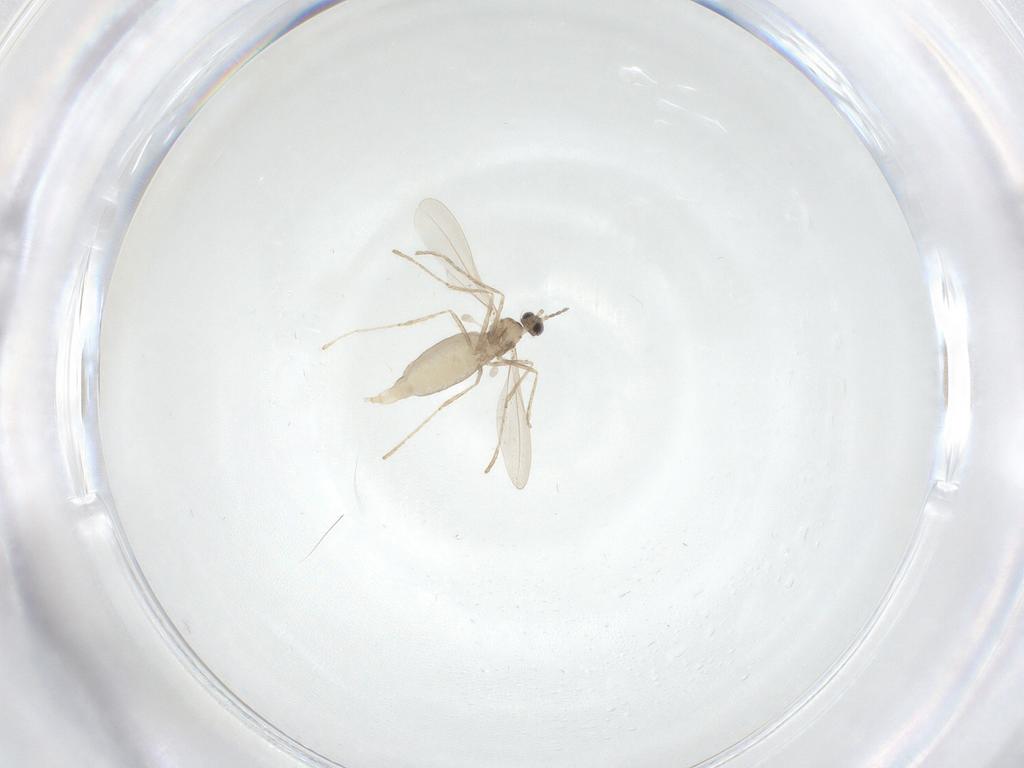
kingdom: Animalia
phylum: Arthropoda
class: Insecta
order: Diptera
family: Cecidomyiidae
